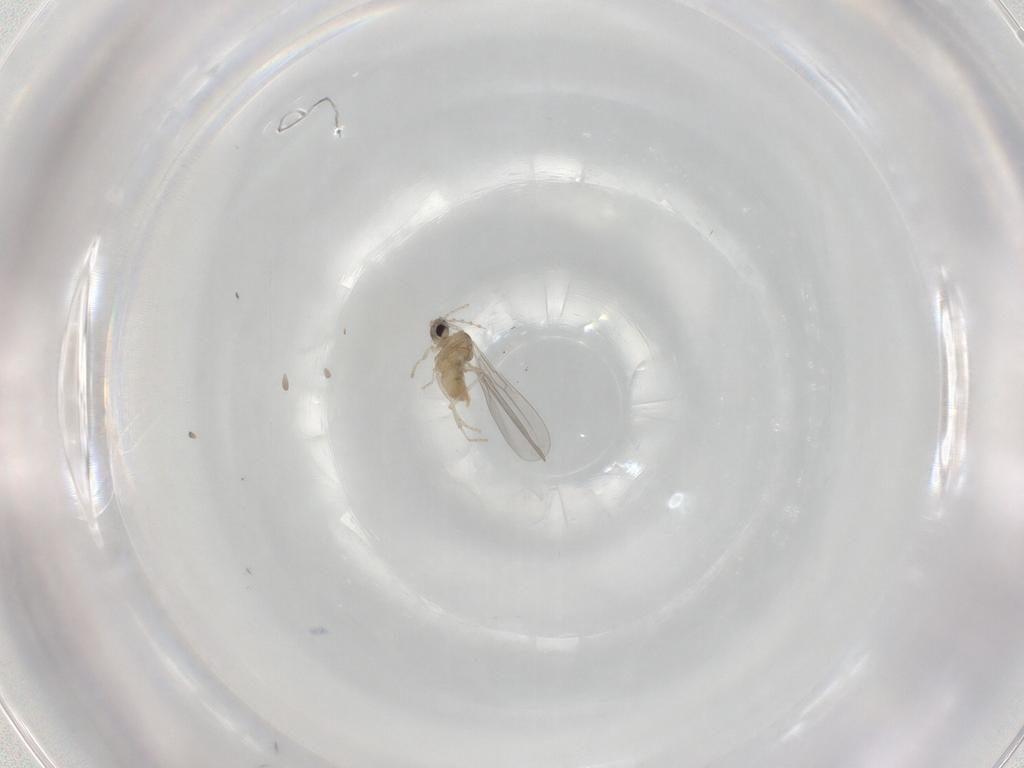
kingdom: Animalia
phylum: Arthropoda
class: Insecta
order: Diptera
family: Cecidomyiidae
